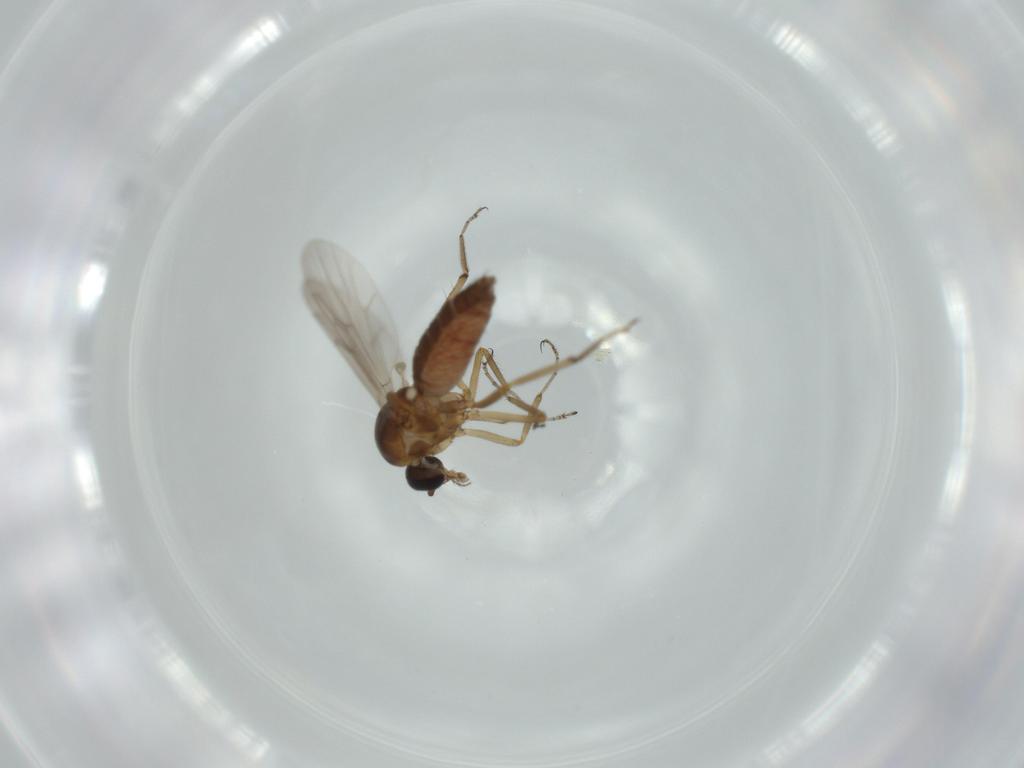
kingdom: Animalia
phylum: Arthropoda
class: Insecta
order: Diptera
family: Ceratopogonidae
